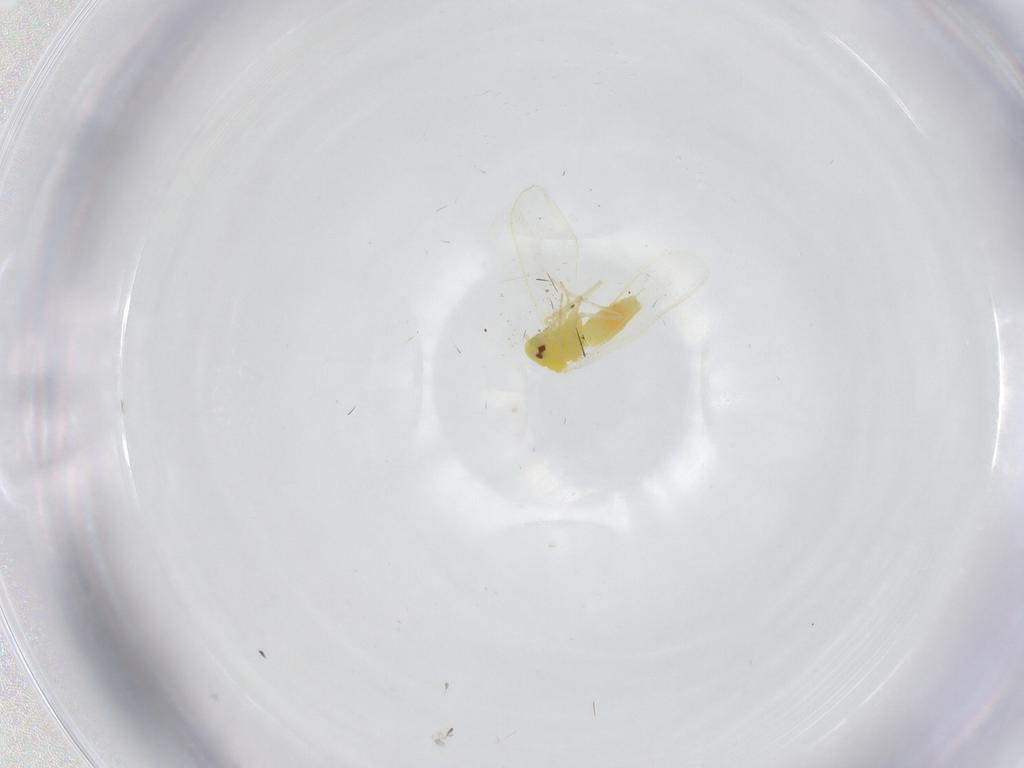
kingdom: Animalia
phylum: Arthropoda
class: Insecta
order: Hemiptera
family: Aleyrodidae
